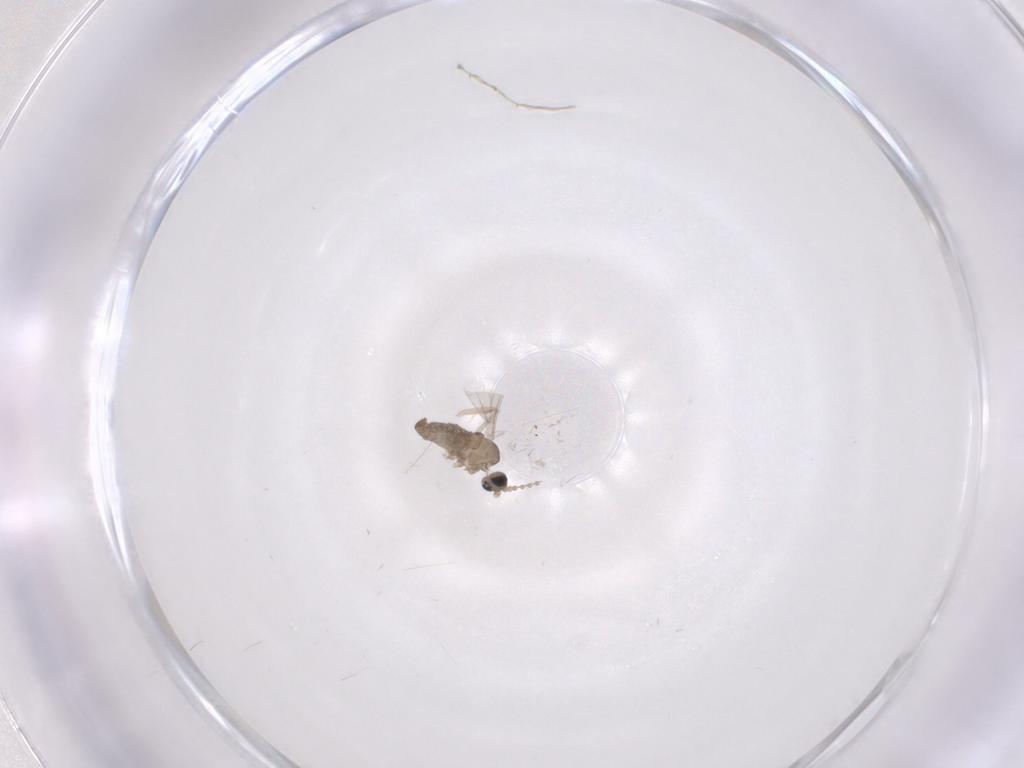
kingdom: Animalia
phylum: Arthropoda
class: Insecta
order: Diptera
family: Cecidomyiidae
